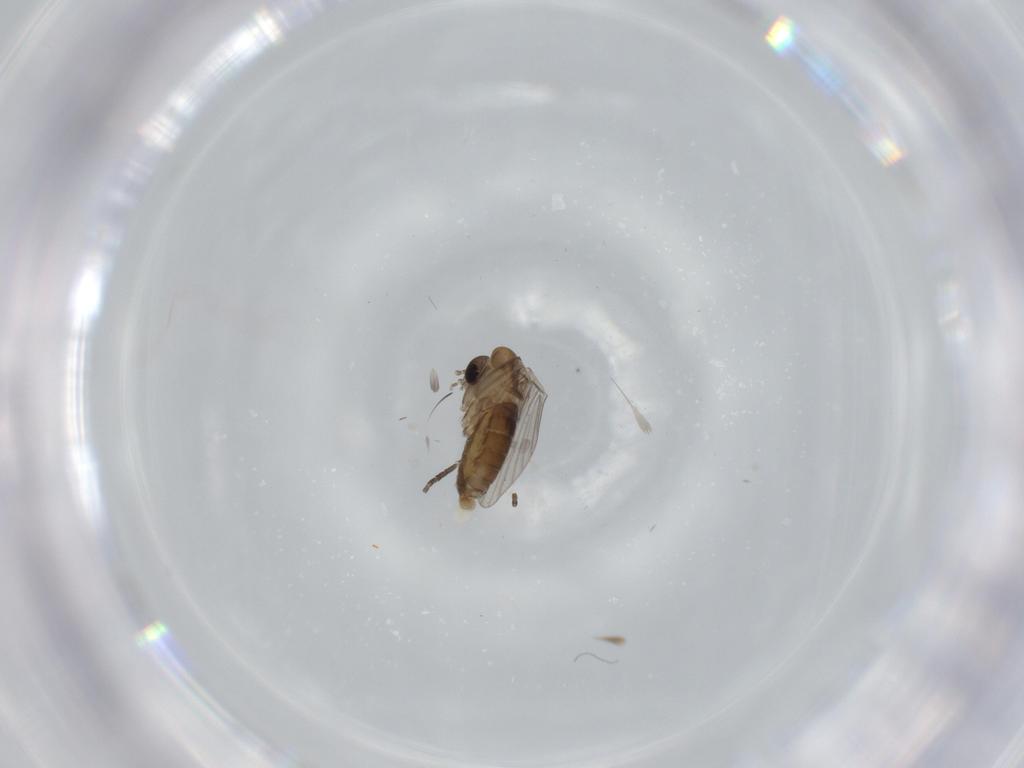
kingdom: Animalia
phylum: Arthropoda
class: Insecta
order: Diptera
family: Psychodidae
